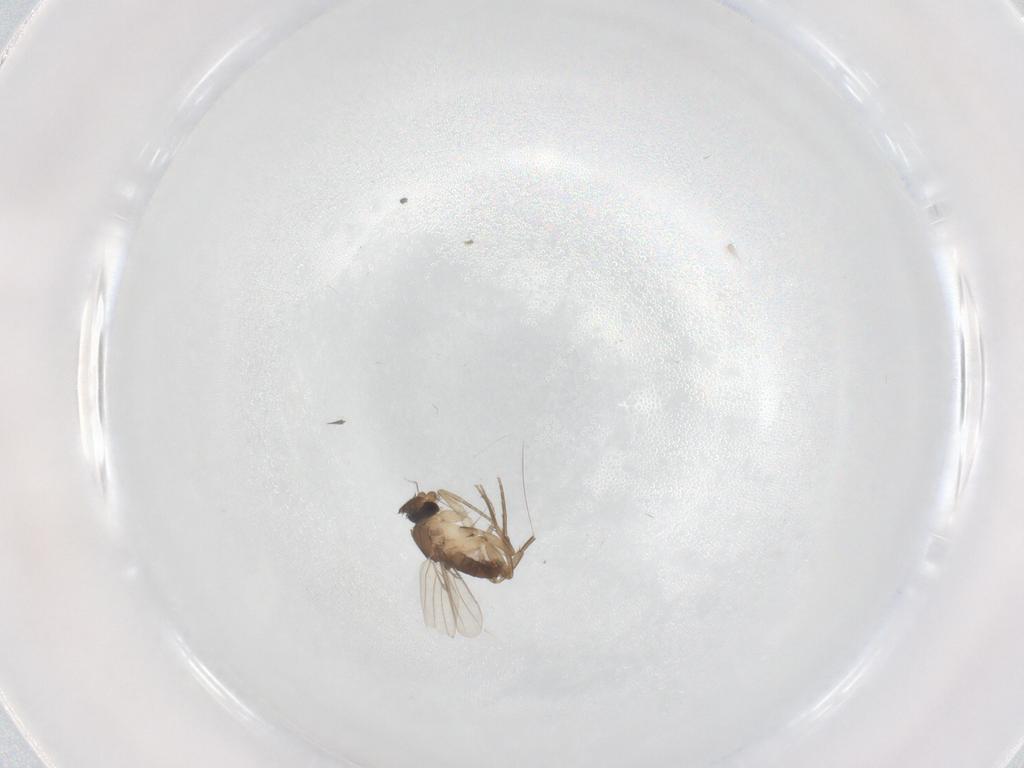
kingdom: Animalia
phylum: Arthropoda
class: Insecta
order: Diptera
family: Phoridae
